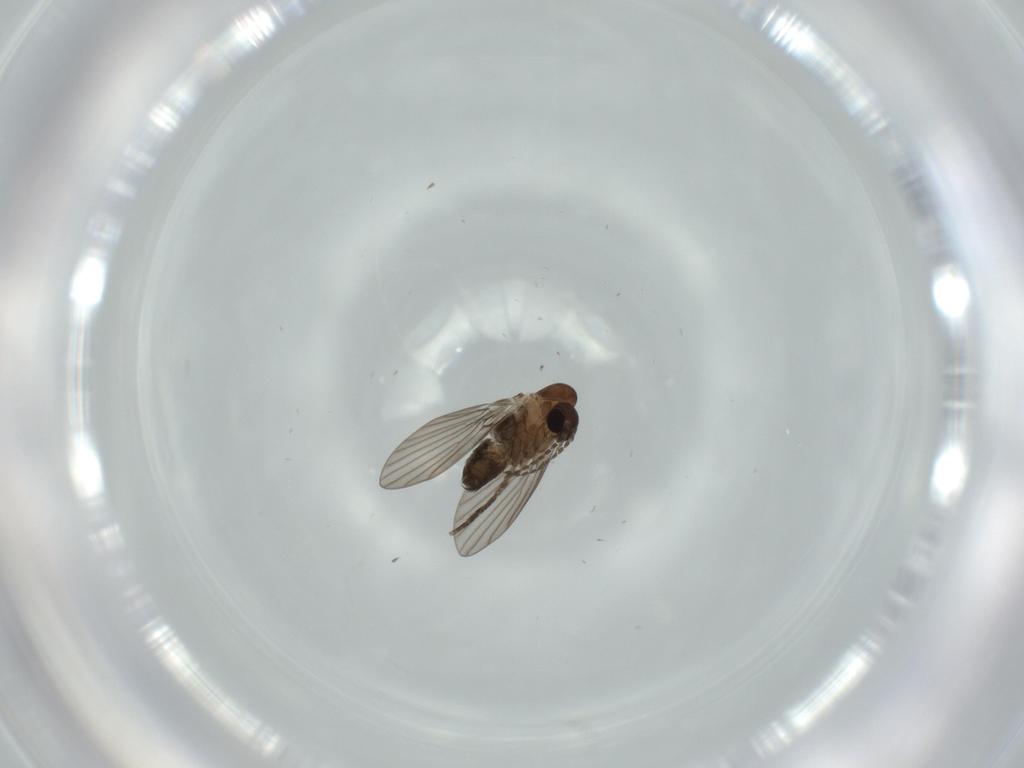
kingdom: Animalia
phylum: Arthropoda
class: Insecta
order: Diptera
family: Psychodidae
